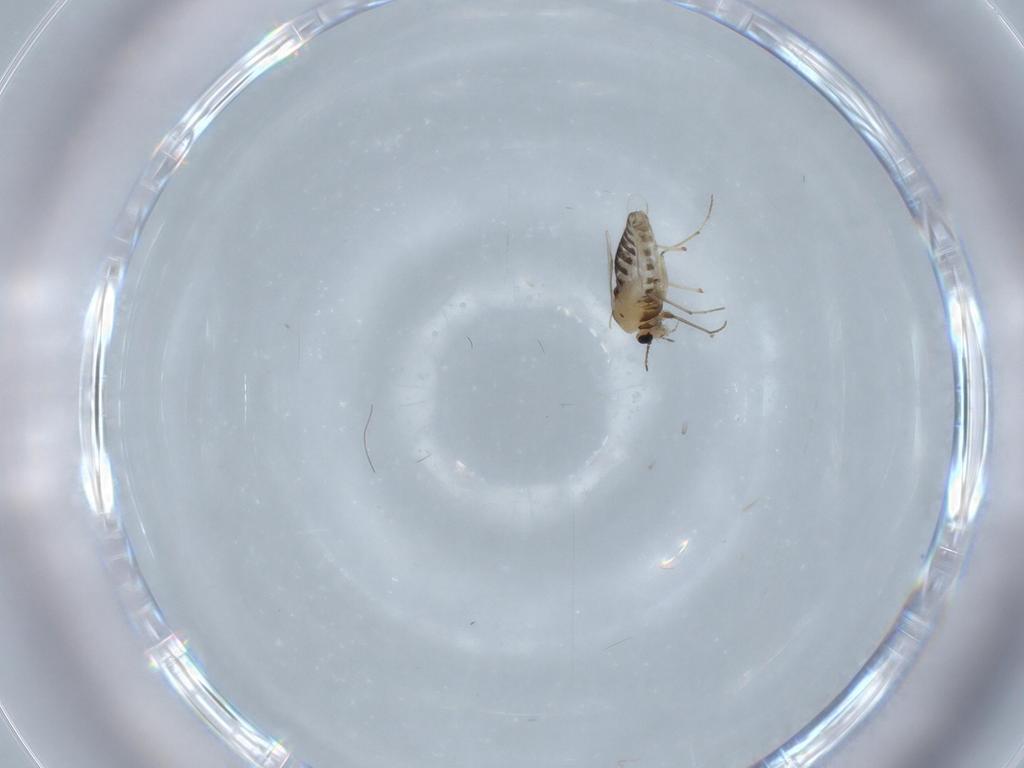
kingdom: Animalia
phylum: Arthropoda
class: Insecta
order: Diptera
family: Chironomidae
